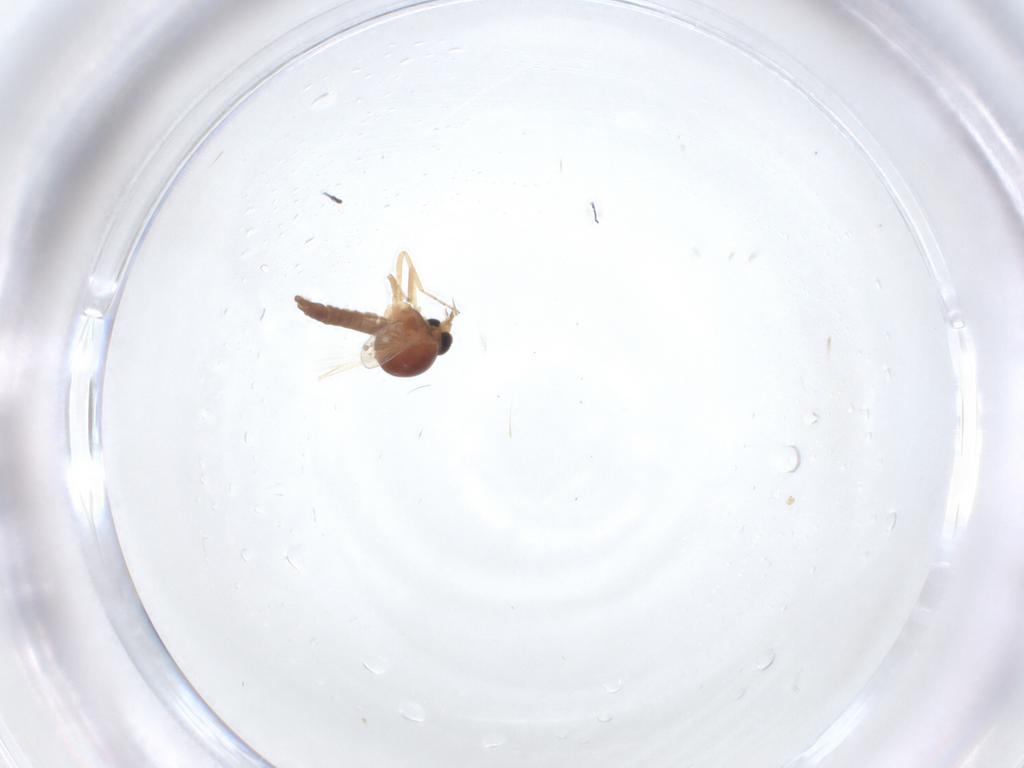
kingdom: Animalia
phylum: Arthropoda
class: Insecta
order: Diptera
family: Ceratopogonidae
